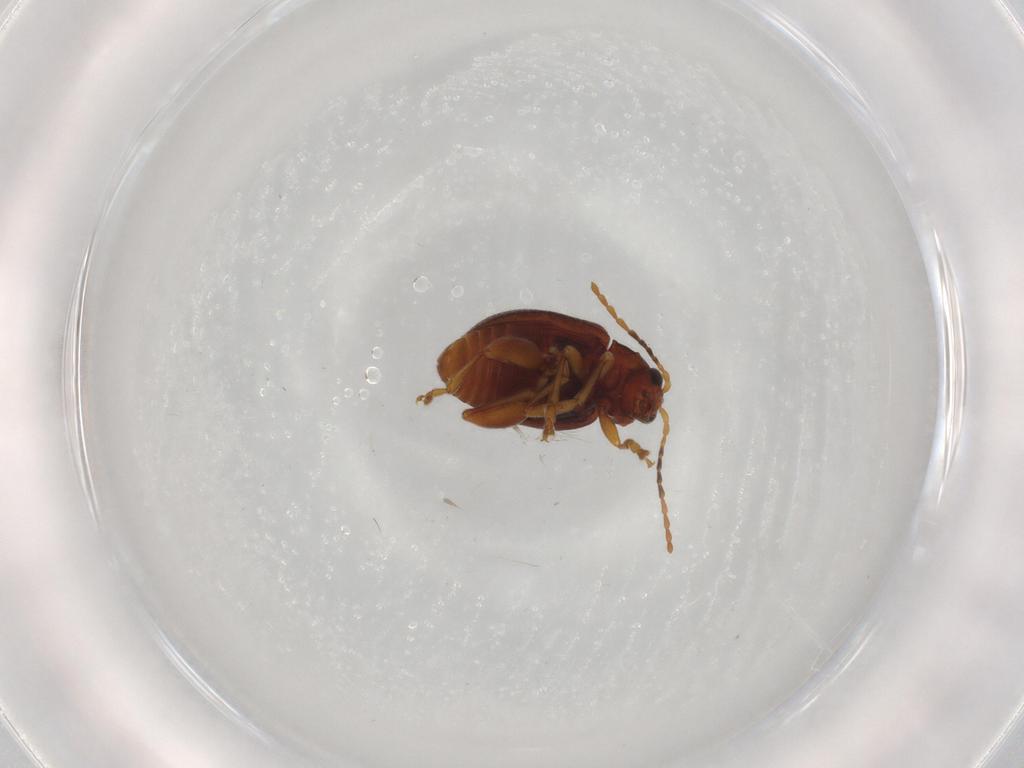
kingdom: Animalia
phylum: Arthropoda
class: Insecta
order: Coleoptera
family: Chrysomelidae
